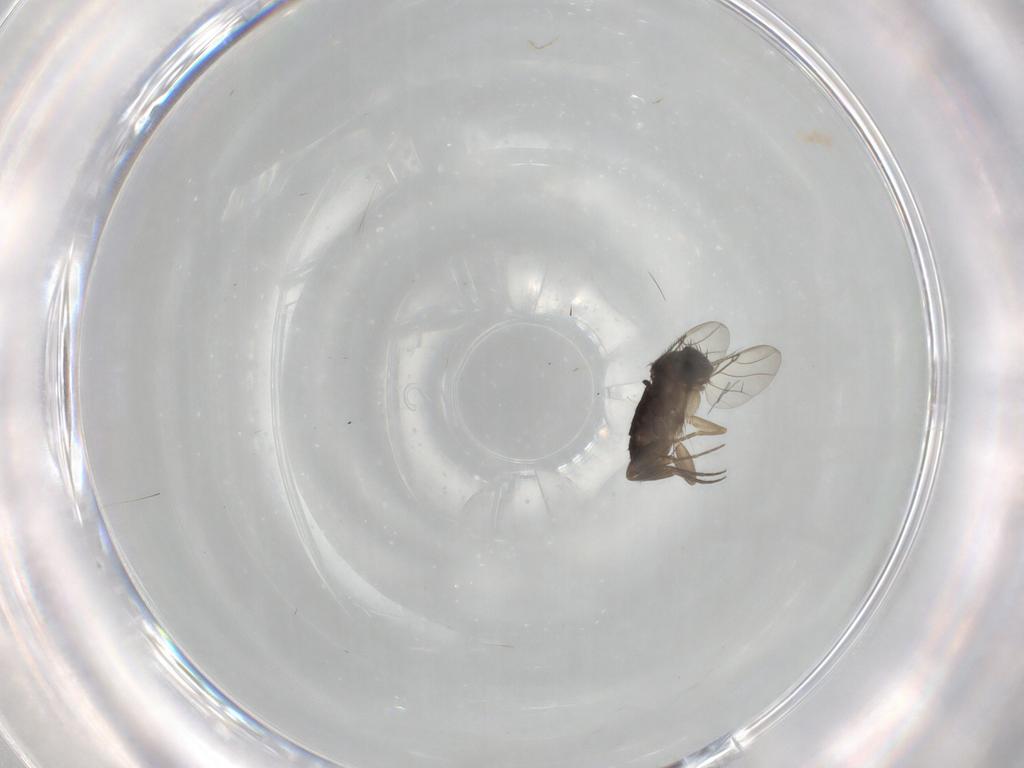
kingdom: Animalia
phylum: Arthropoda
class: Insecta
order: Diptera
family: Phoridae
